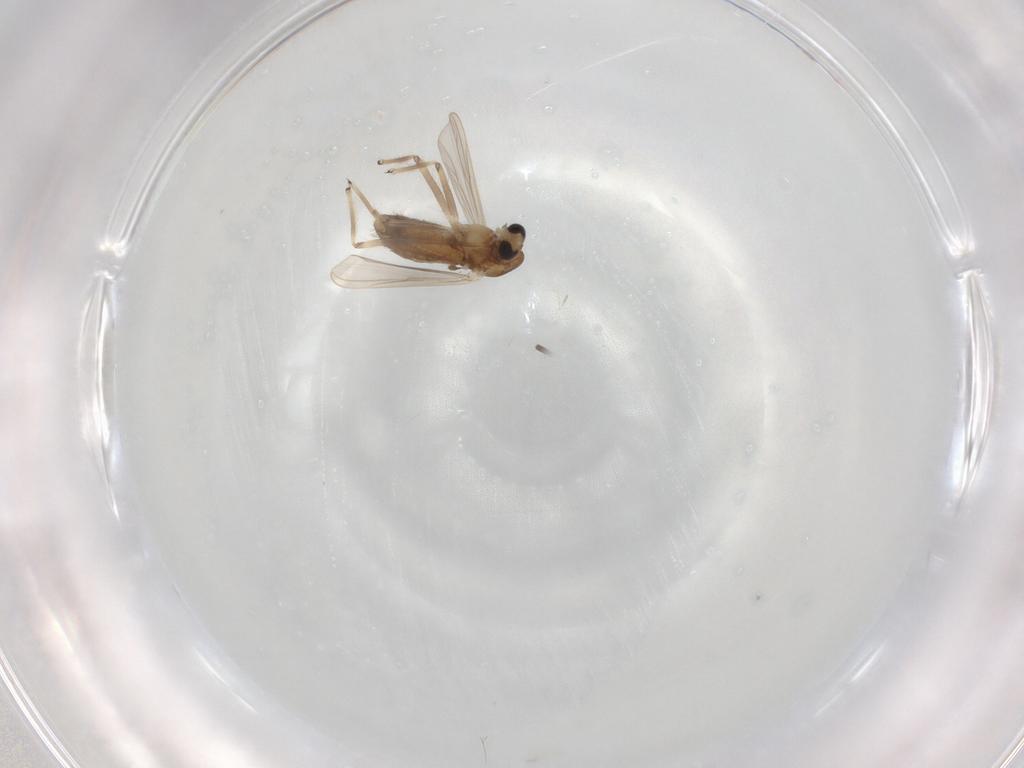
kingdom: Animalia
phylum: Arthropoda
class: Insecta
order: Diptera
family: Chironomidae
